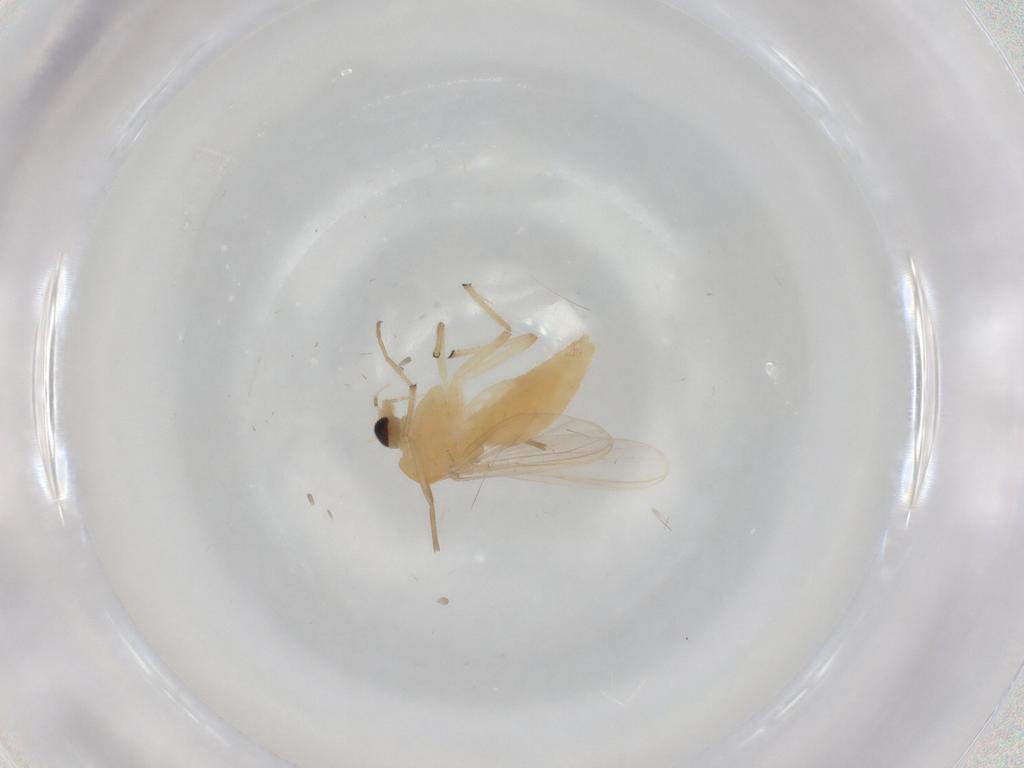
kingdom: Animalia
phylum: Arthropoda
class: Insecta
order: Diptera
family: Chironomidae
